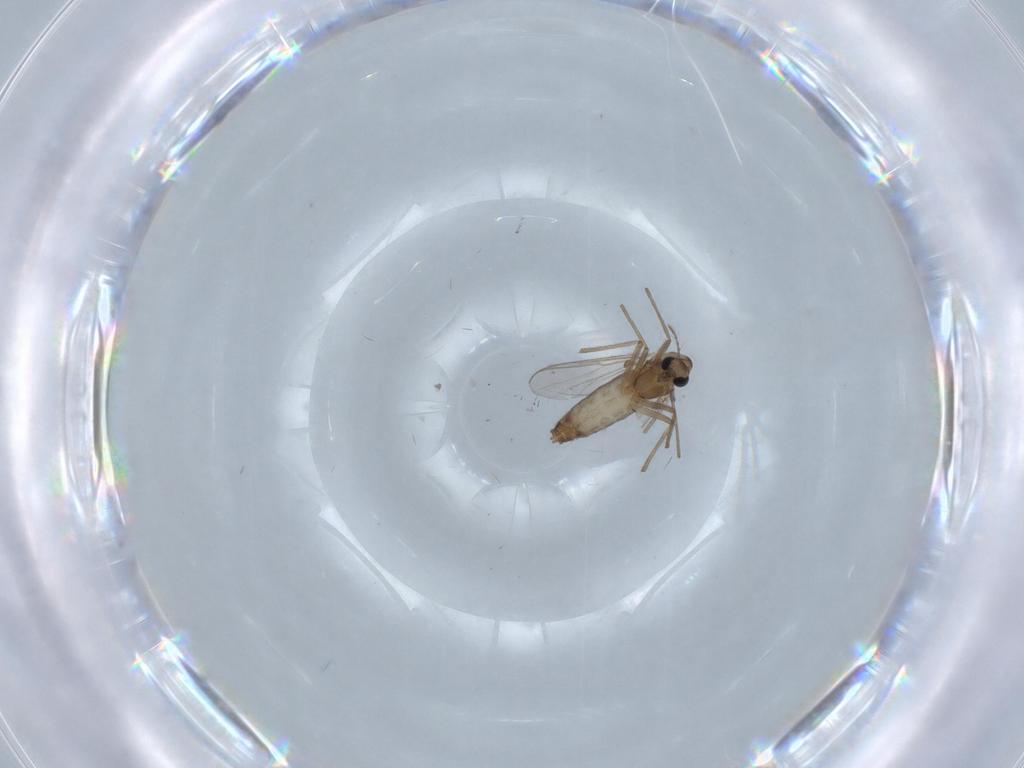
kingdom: Animalia
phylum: Arthropoda
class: Insecta
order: Diptera
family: Chironomidae
